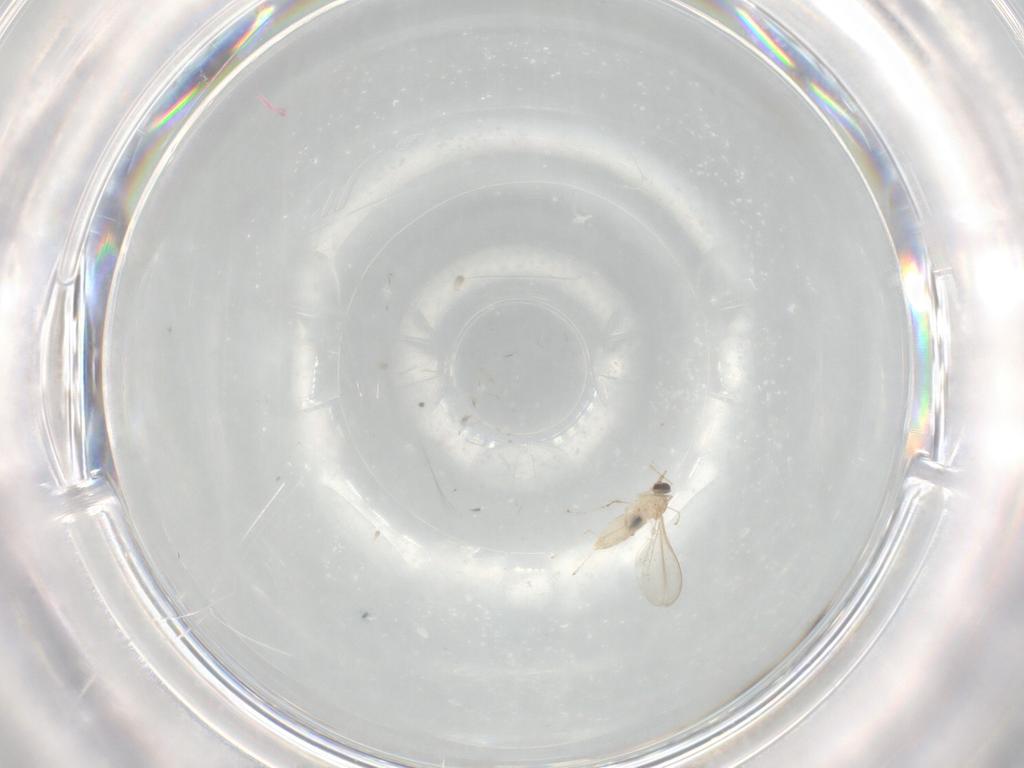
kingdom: Animalia
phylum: Arthropoda
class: Insecta
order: Diptera
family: Cecidomyiidae
